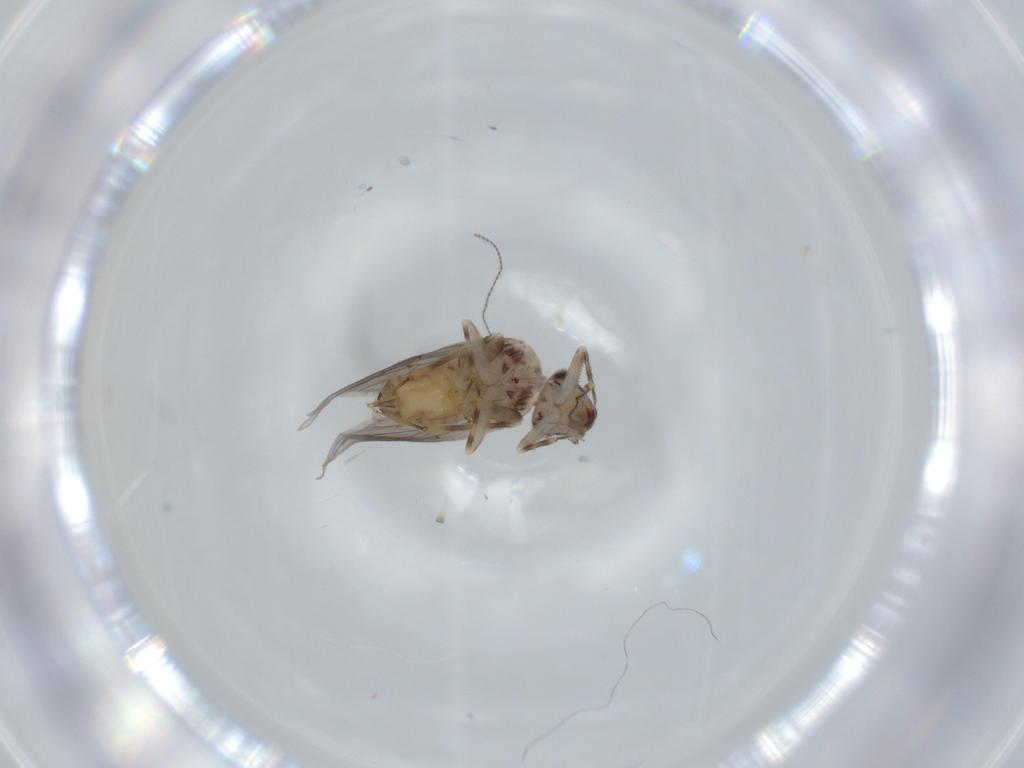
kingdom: Animalia
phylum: Arthropoda
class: Insecta
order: Psocodea
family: Lepidopsocidae
